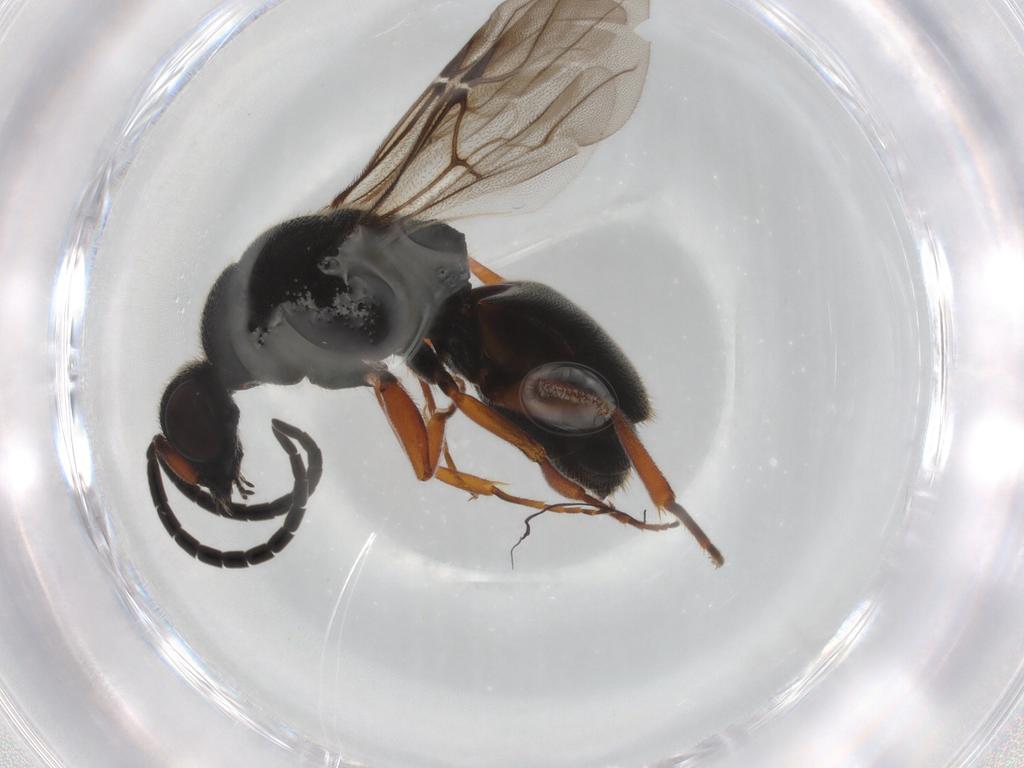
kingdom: Animalia
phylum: Arthropoda
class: Insecta
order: Hymenoptera
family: Chrysididae
